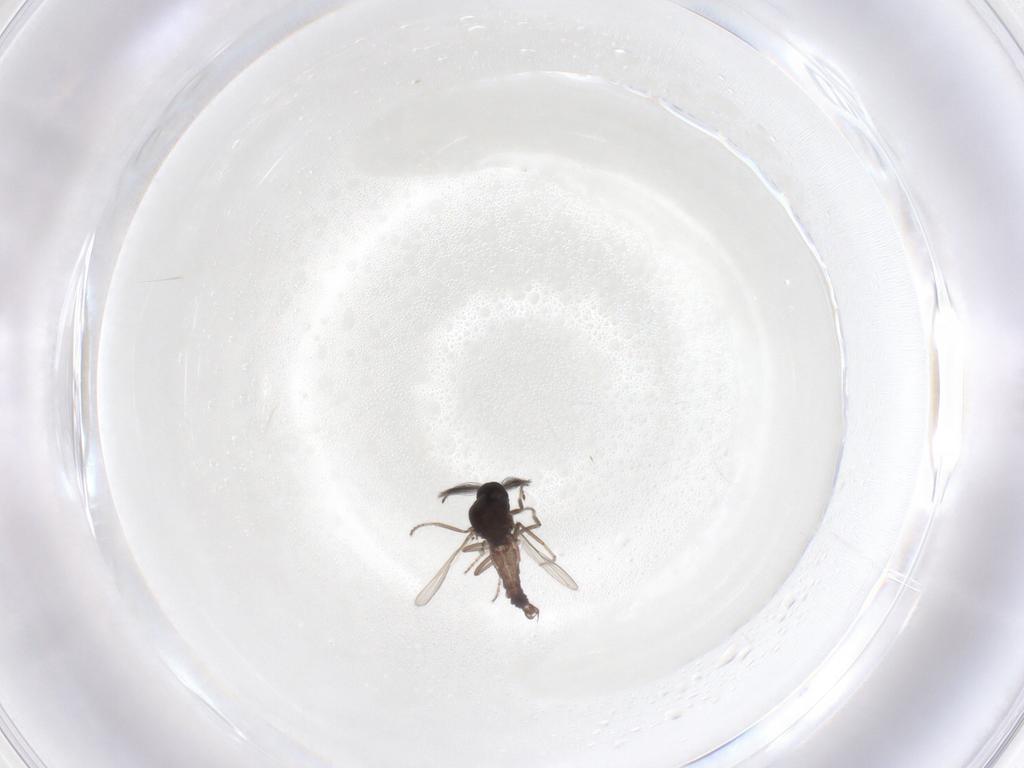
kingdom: Animalia
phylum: Arthropoda
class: Insecta
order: Diptera
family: Ceratopogonidae
